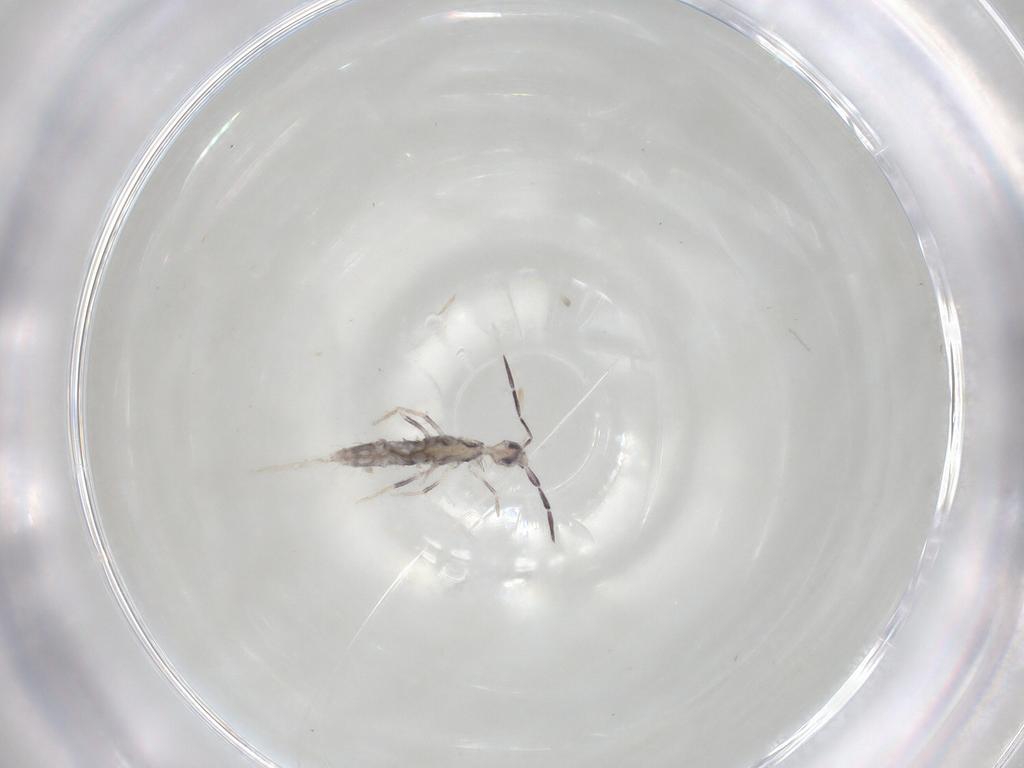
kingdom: Animalia
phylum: Arthropoda
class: Collembola
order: Entomobryomorpha
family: Entomobryidae
